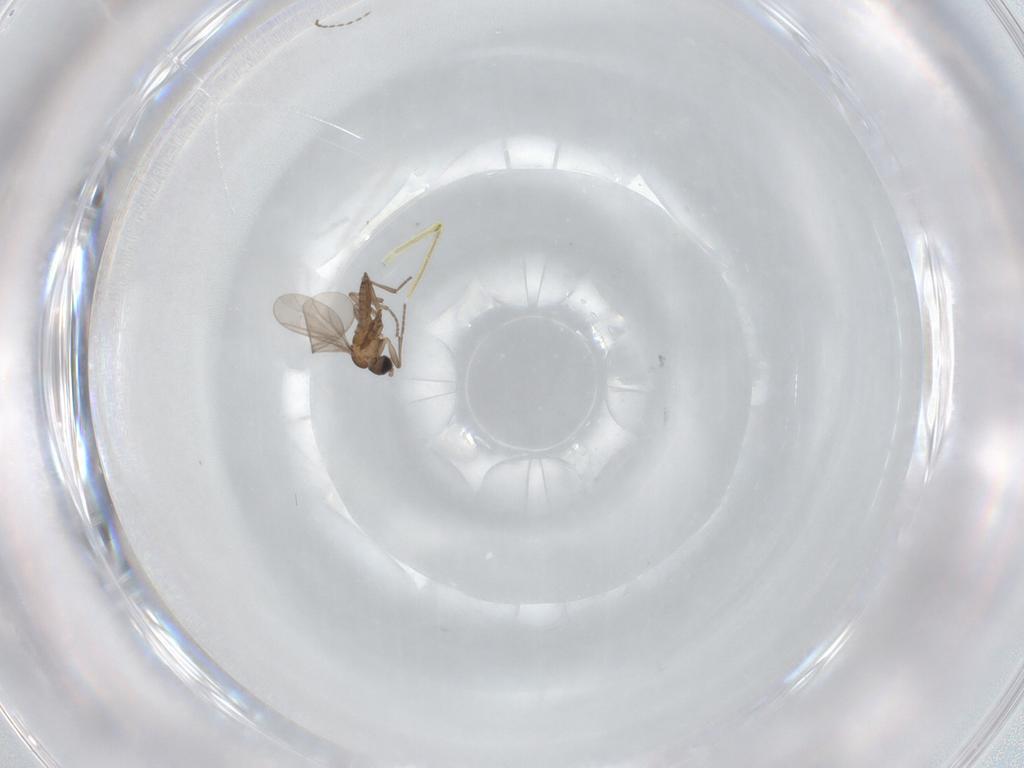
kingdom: Animalia
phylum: Arthropoda
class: Insecta
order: Diptera
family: Sciaridae
